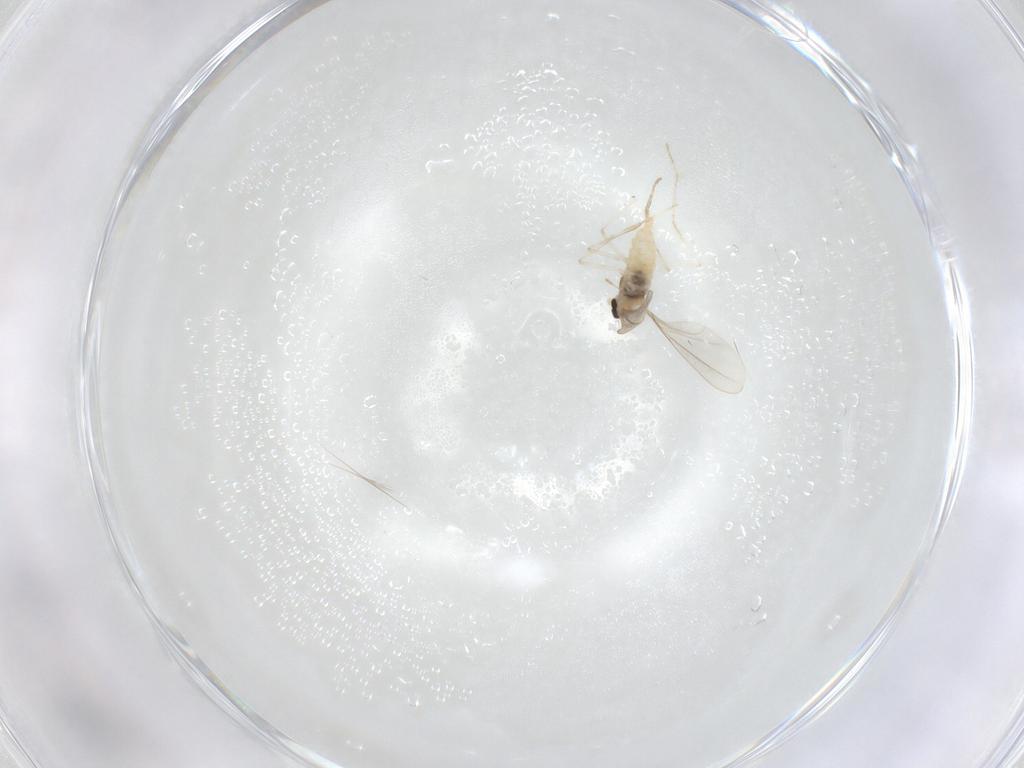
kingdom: Animalia
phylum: Arthropoda
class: Insecta
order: Diptera
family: Cecidomyiidae
